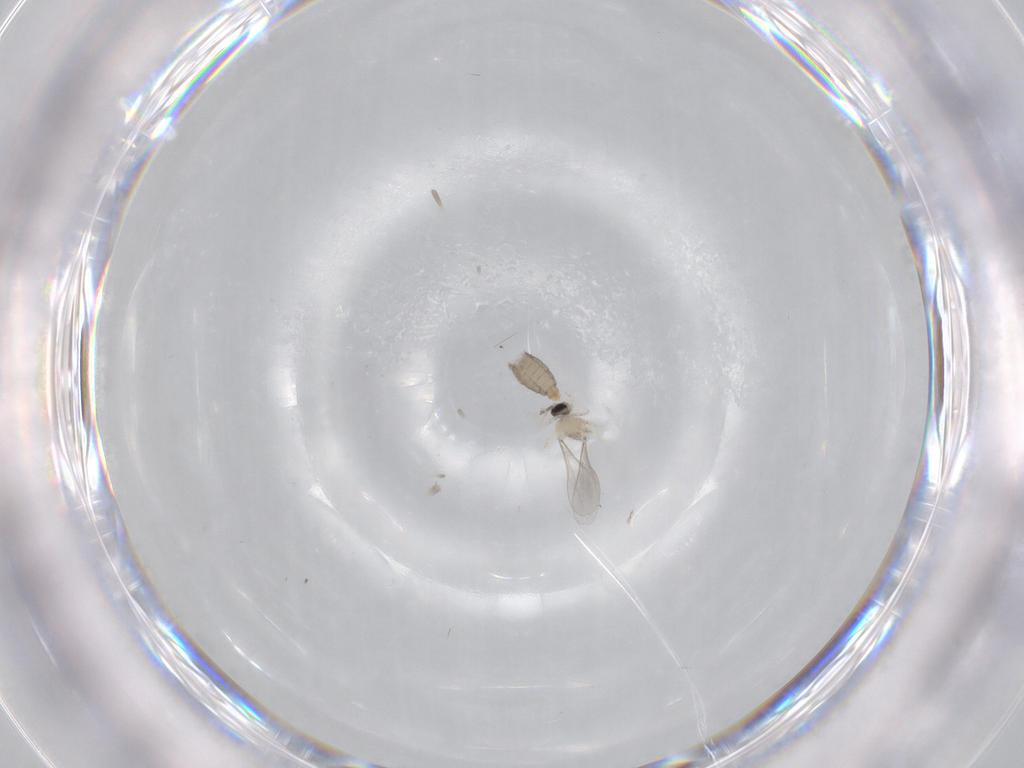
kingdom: Animalia
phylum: Arthropoda
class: Insecta
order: Diptera
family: Cecidomyiidae
